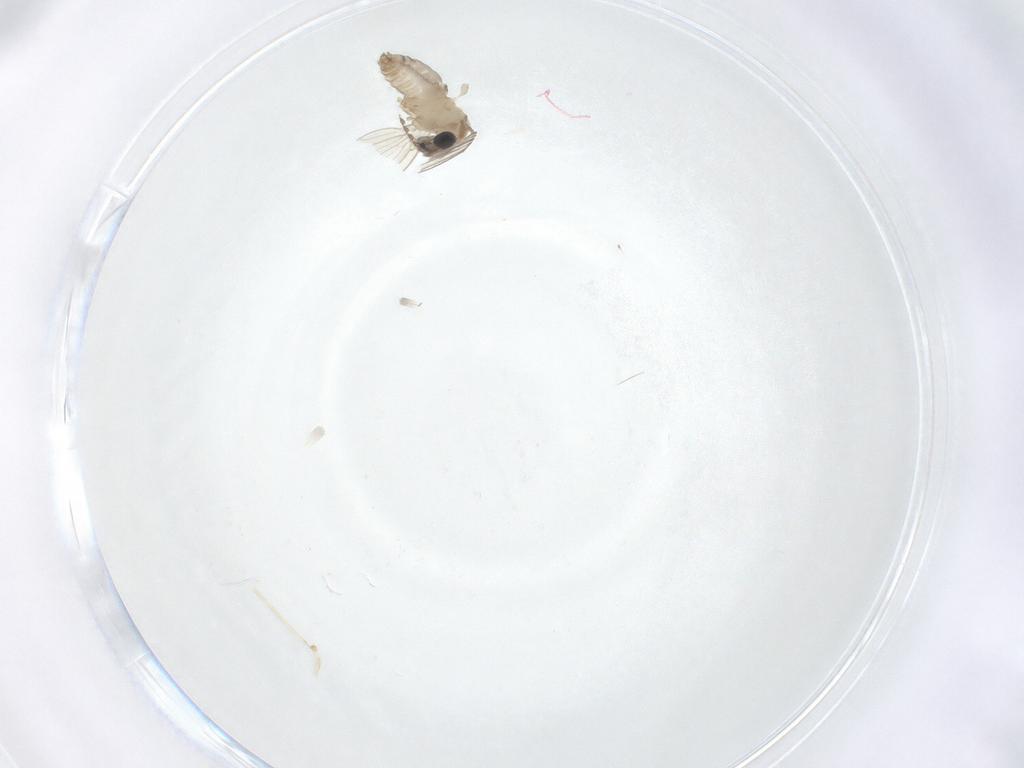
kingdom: Animalia
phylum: Arthropoda
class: Insecta
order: Diptera
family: Psychodidae
